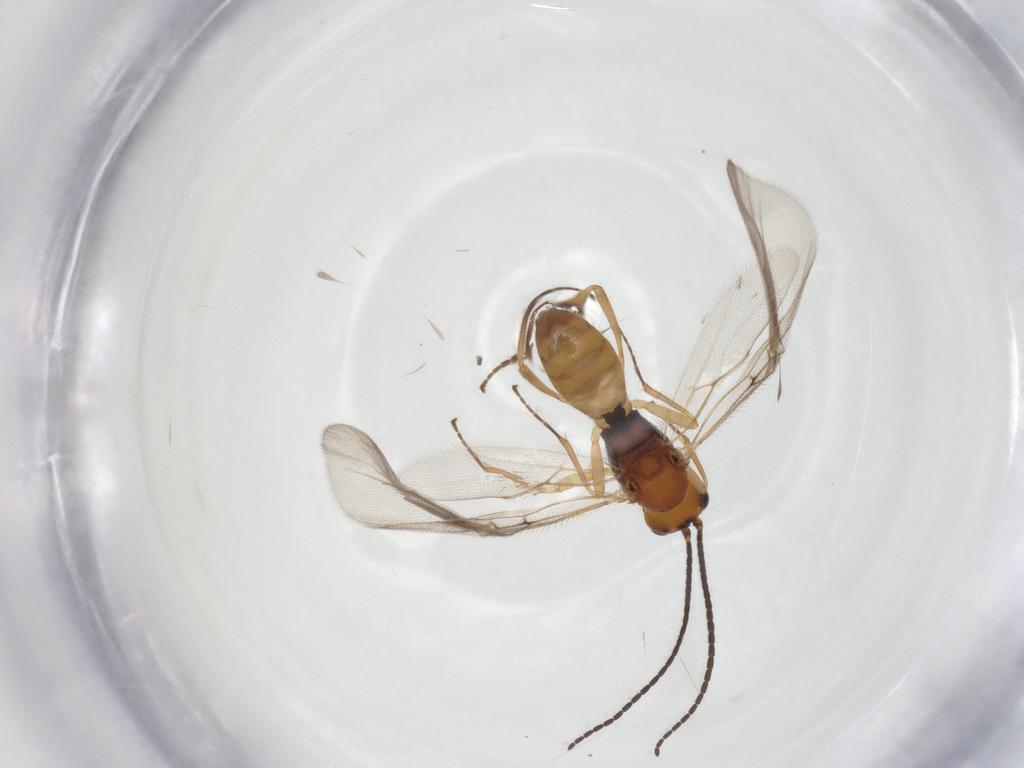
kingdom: Animalia
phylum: Arthropoda
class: Insecta
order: Hymenoptera
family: Braconidae
